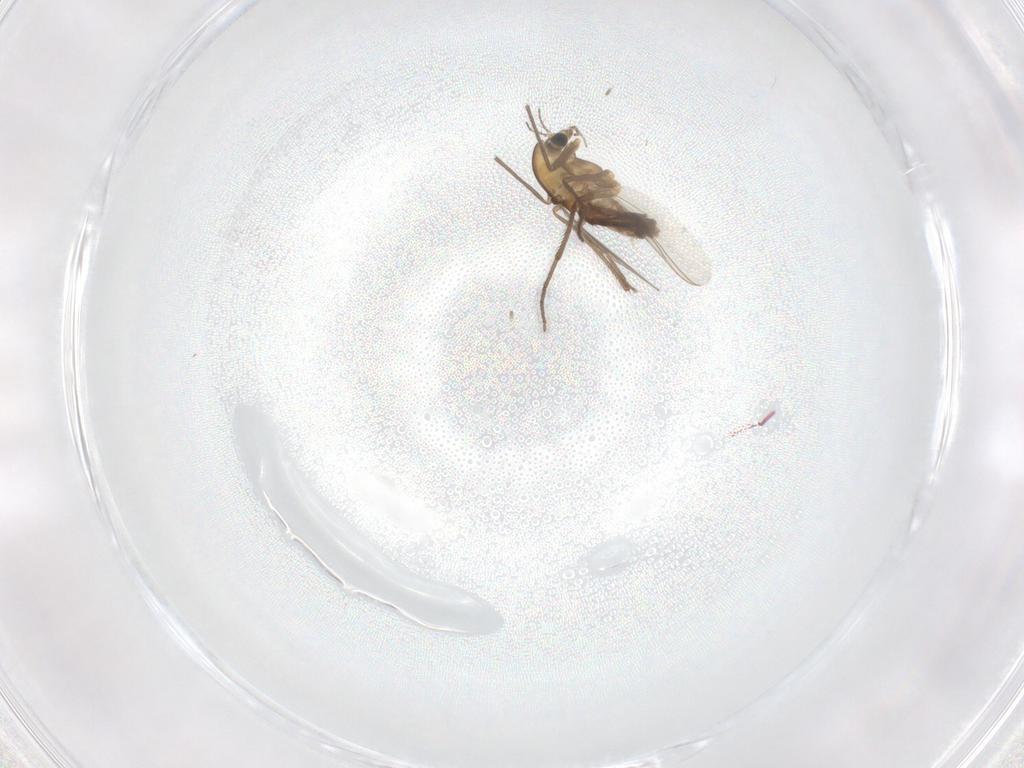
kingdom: Animalia
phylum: Arthropoda
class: Insecta
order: Diptera
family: Chironomidae
